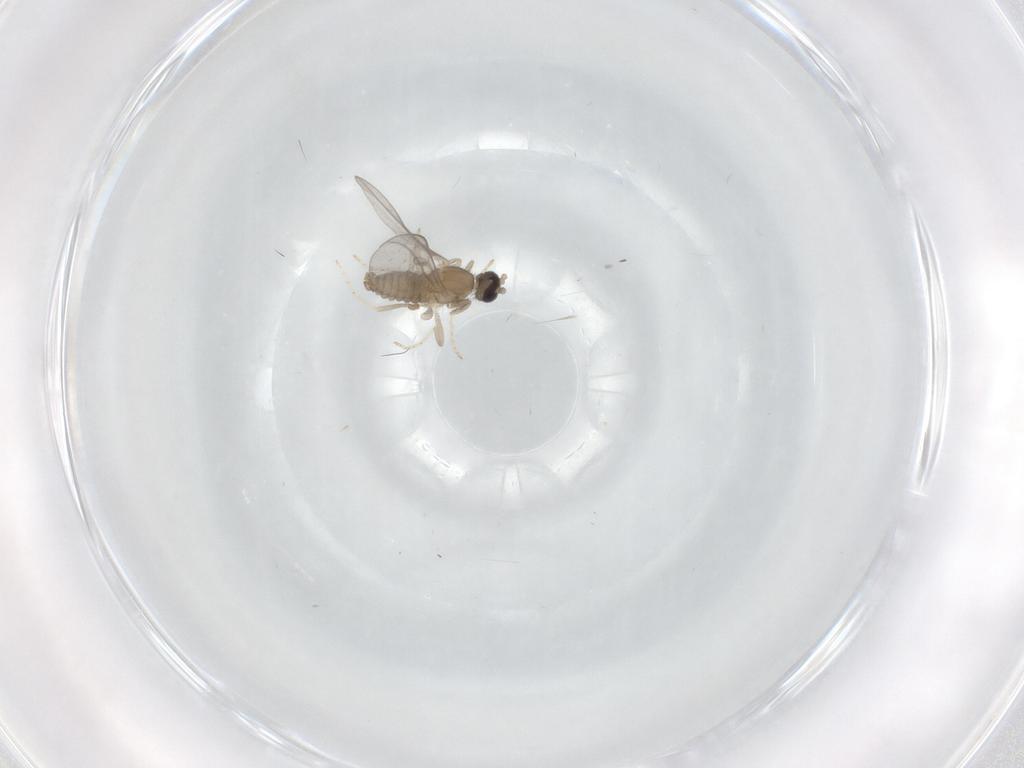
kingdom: Animalia
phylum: Arthropoda
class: Insecta
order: Diptera
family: Cecidomyiidae
